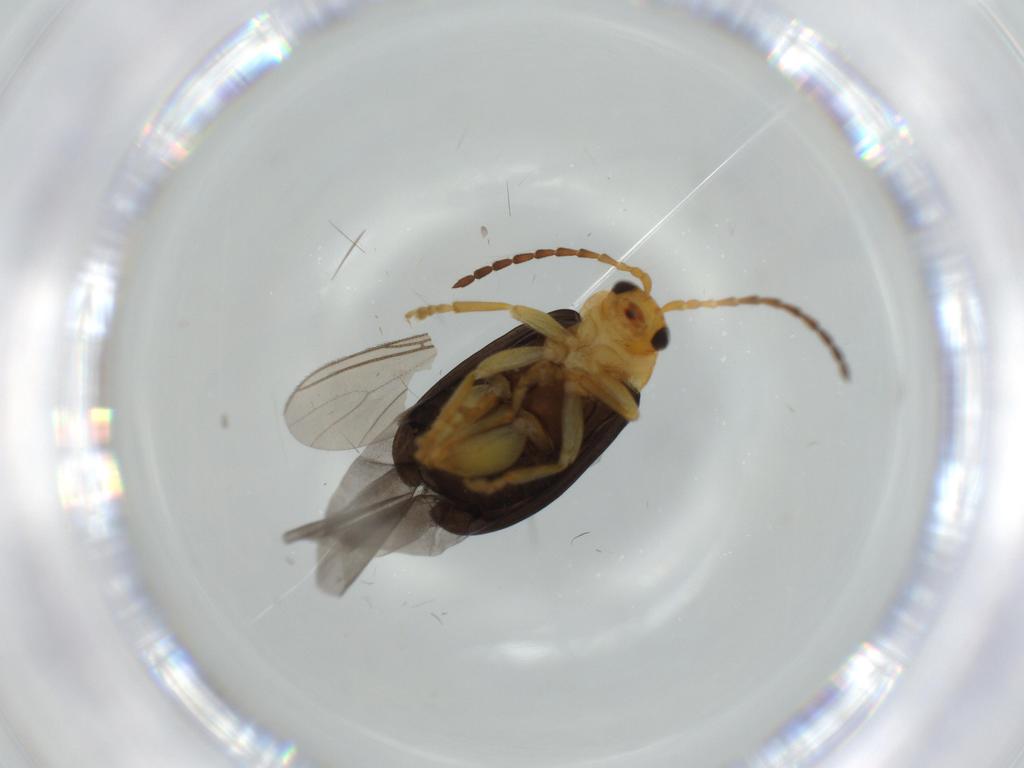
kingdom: Animalia
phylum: Arthropoda
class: Insecta
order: Coleoptera
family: Chrysomelidae
